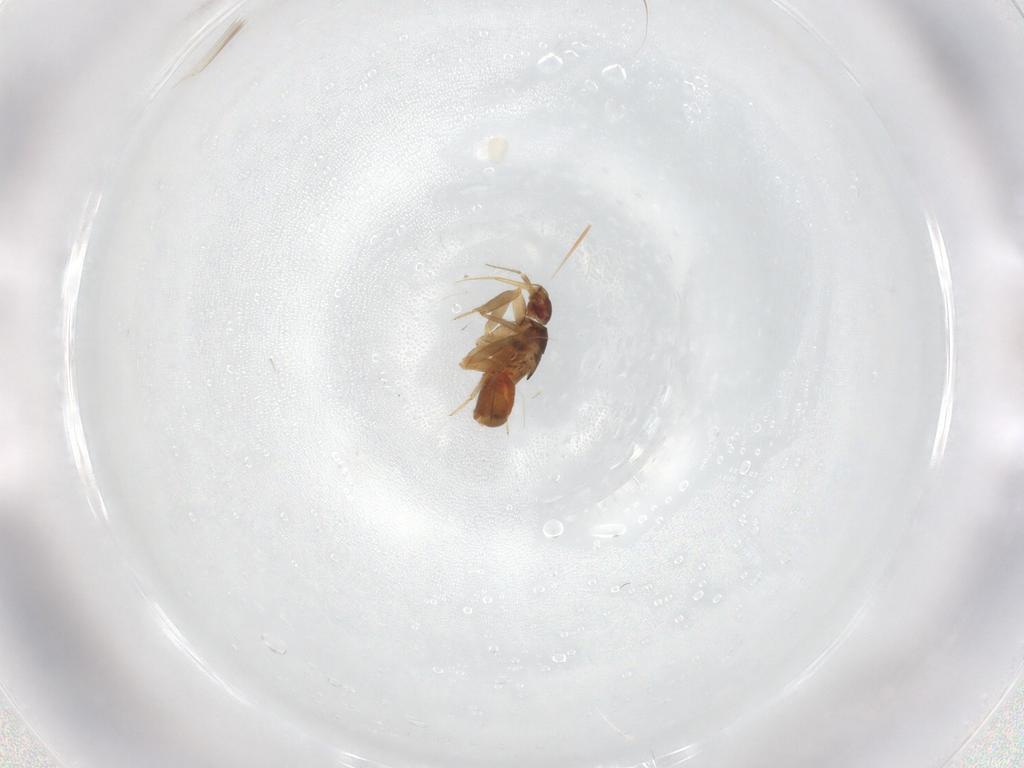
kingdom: Animalia
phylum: Arthropoda
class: Insecta
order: Hemiptera
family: Ceratocombidae
